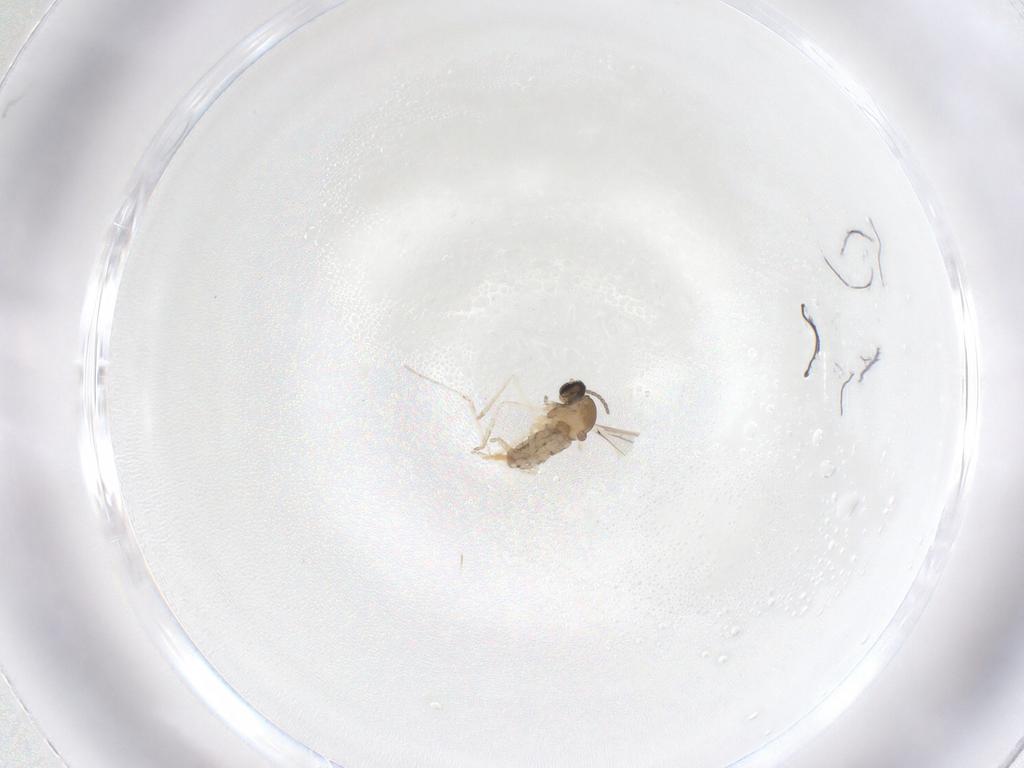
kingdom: Animalia
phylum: Arthropoda
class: Insecta
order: Diptera
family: Cecidomyiidae
